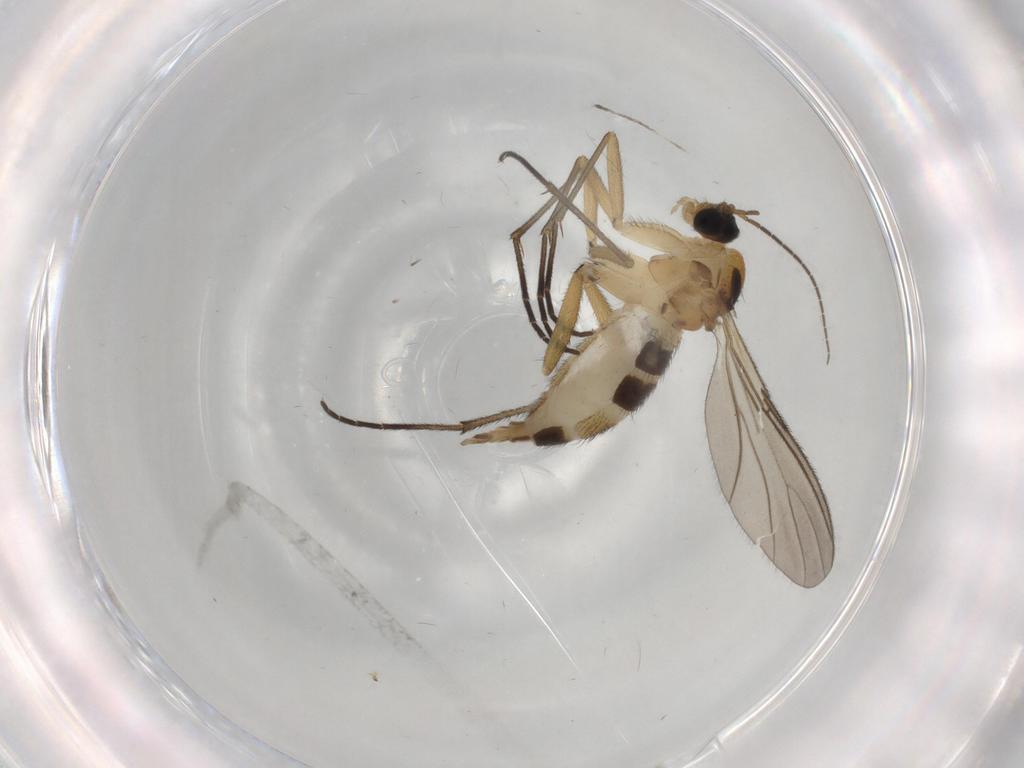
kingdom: Animalia
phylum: Arthropoda
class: Insecta
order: Diptera
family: Sciaridae
